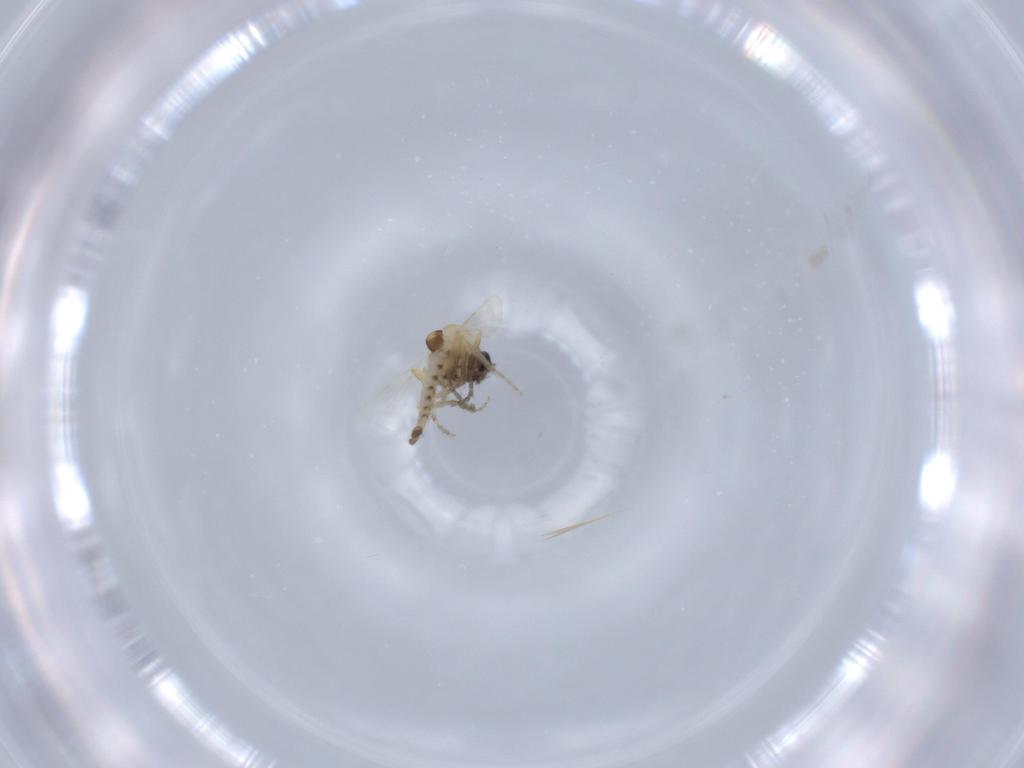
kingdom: Animalia
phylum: Arthropoda
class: Insecta
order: Diptera
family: Ceratopogonidae
